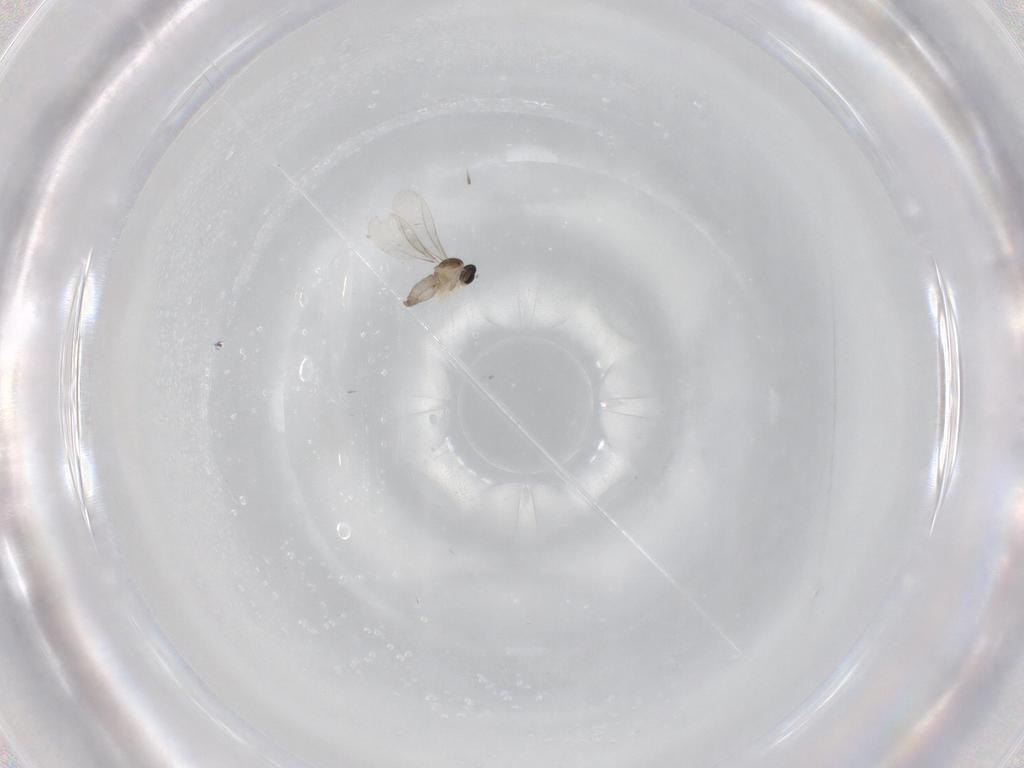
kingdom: Animalia
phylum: Arthropoda
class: Insecta
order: Diptera
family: Cecidomyiidae
